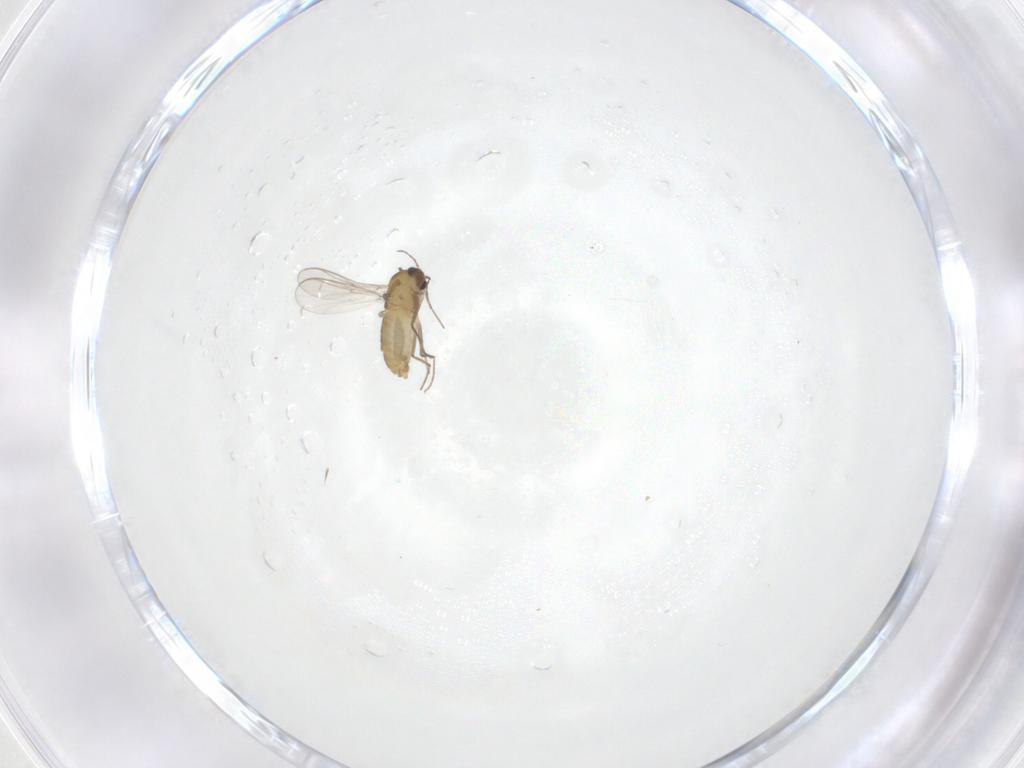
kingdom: Animalia
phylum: Arthropoda
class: Insecta
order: Diptera
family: Chironomidae
